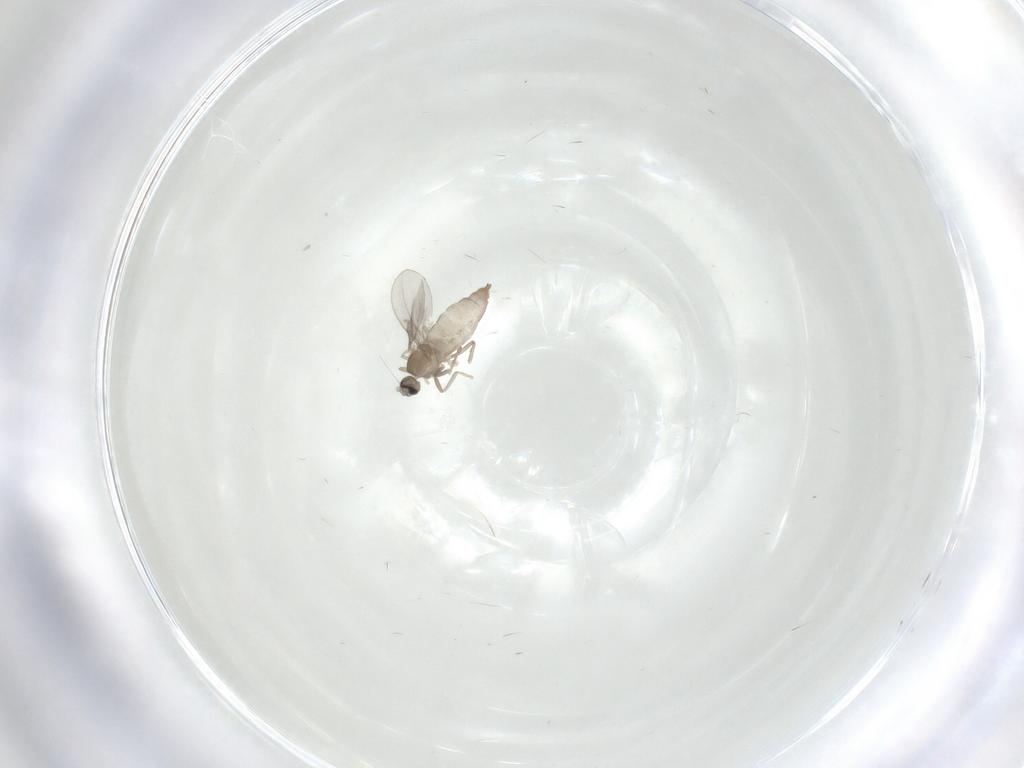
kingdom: Animalia
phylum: Arthropoda
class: Insecta
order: Diptera
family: Cecidomyiidae
